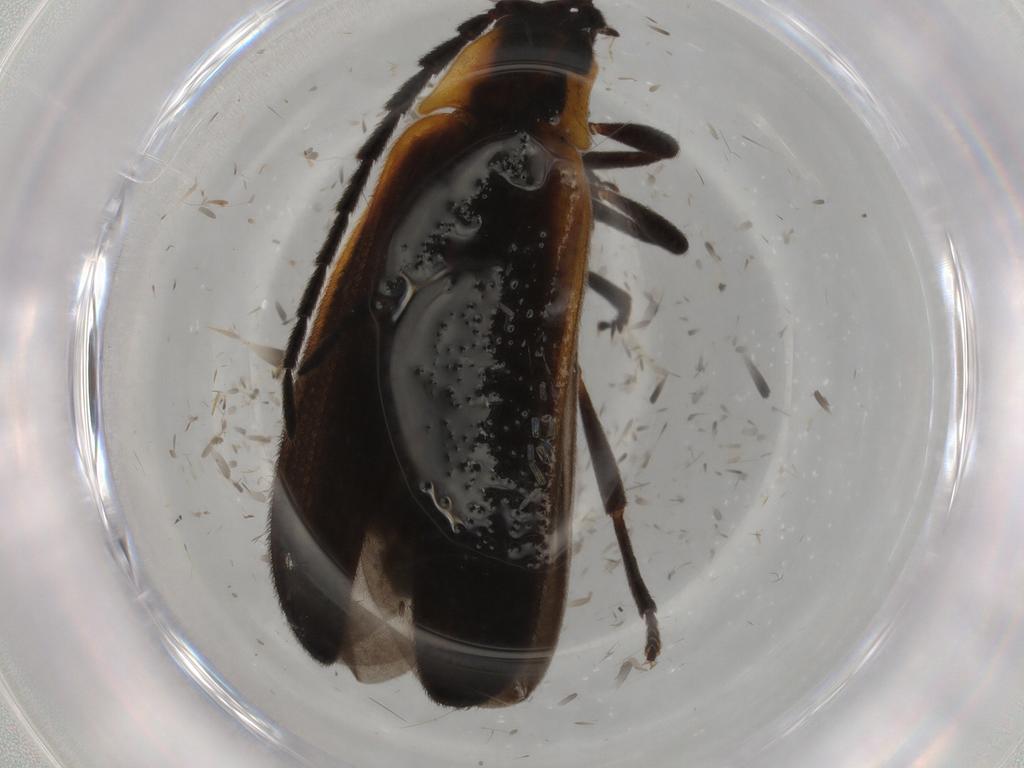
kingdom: Animalia
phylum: Arthropoda
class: Insecta
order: Coleoptera
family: Lycidae
